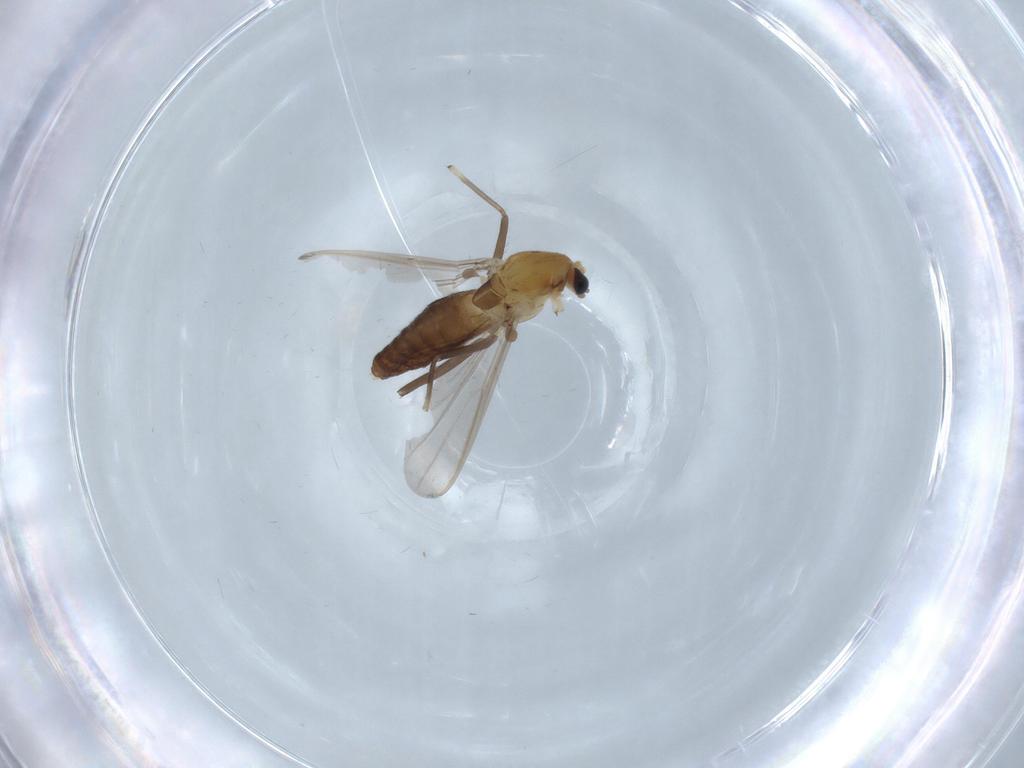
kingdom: Animalia
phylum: Arthropoda
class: Insecta
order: Diptera
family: Chironomidae
